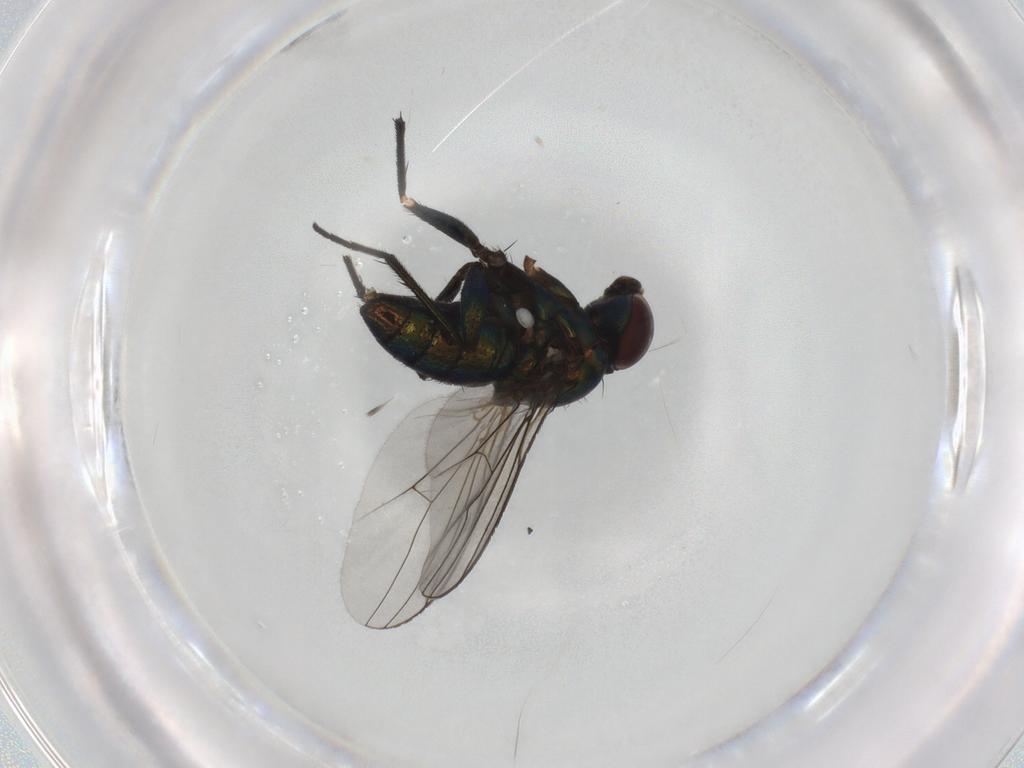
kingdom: Animalia
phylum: Arthropoda
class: Insecta
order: Diptera
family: Dolichopodidae
